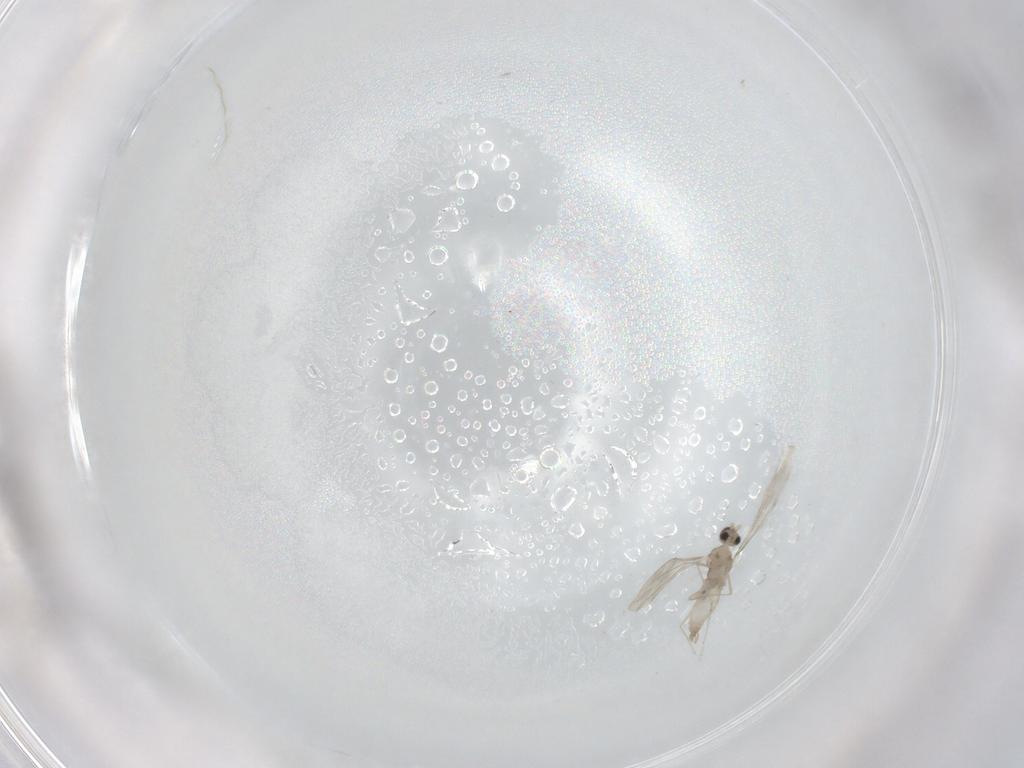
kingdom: Animalia
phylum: Arthropoda
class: Insecta
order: Diptera
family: Cecidomyiidae
